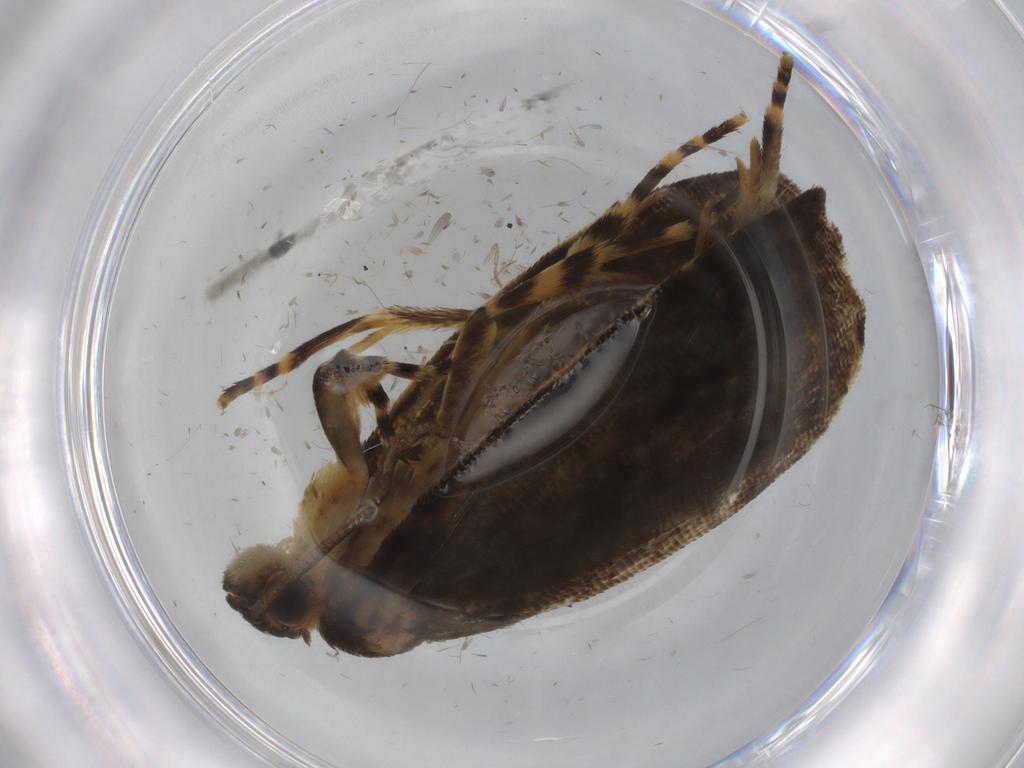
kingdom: Animalia
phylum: Arthropoda
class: Insecta
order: Lepidoptera
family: Thyrididae
